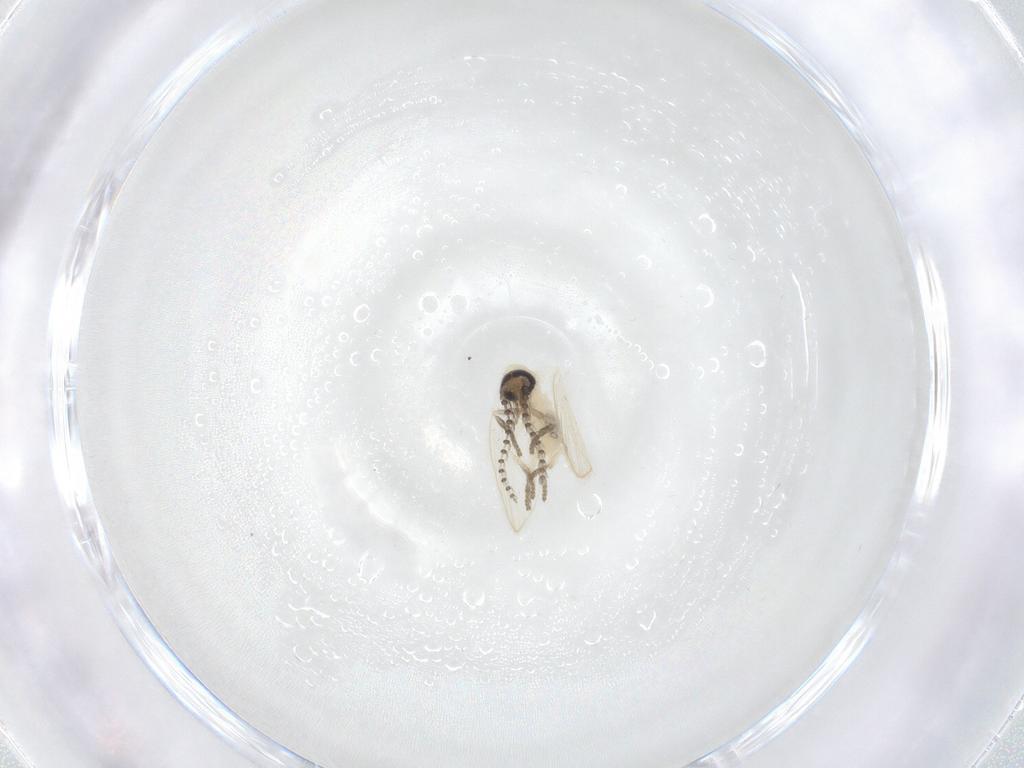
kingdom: Animalia
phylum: Arthropoda
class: Insecta
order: Diptera
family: Psychodidae
